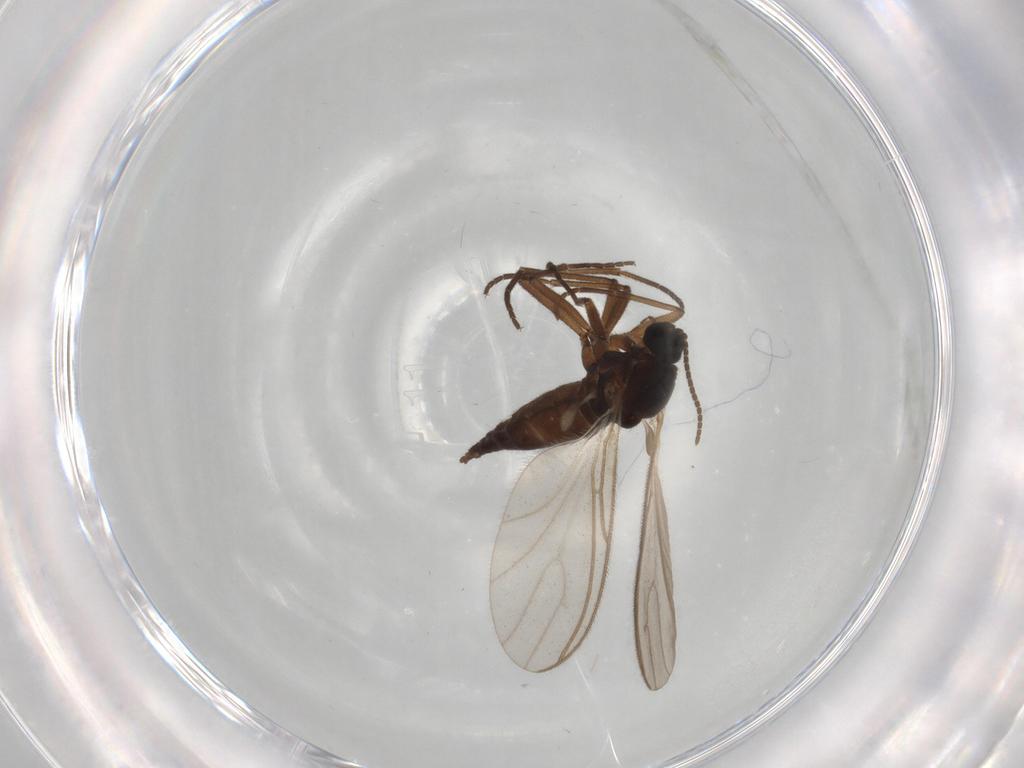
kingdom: Animalia
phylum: Arthropoda
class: Insecta
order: Diptera
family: Sciaridae
